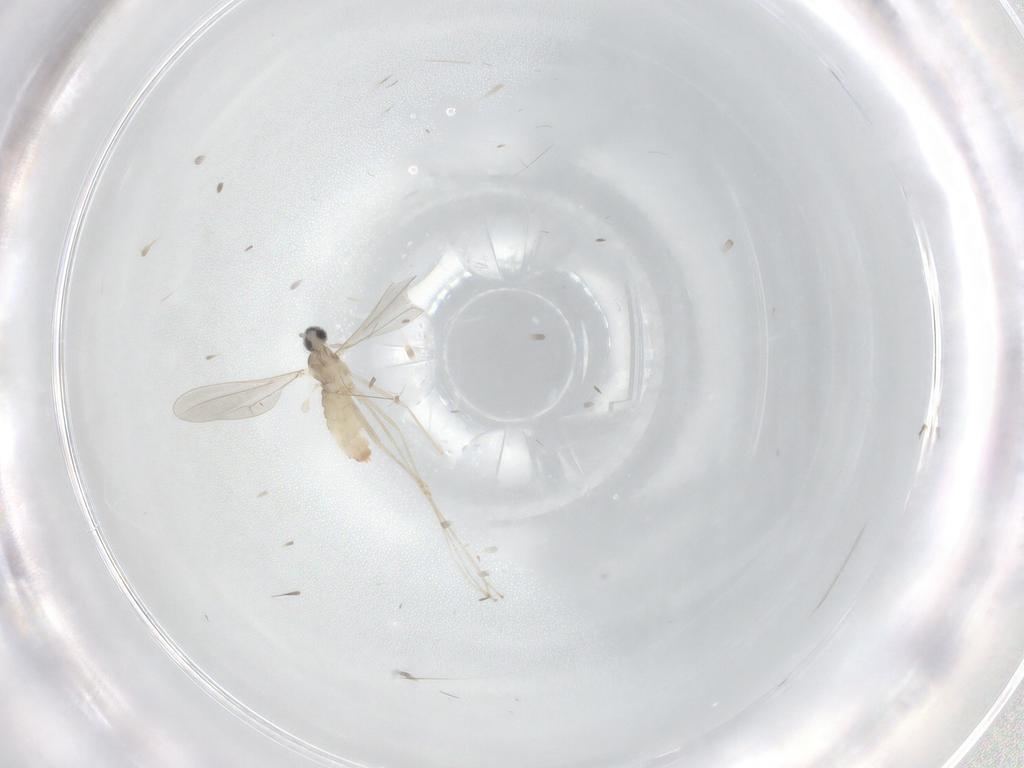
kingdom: Animalia
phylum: Arthropoda
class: Insecta
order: Diptera
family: Cecidomyiidae
